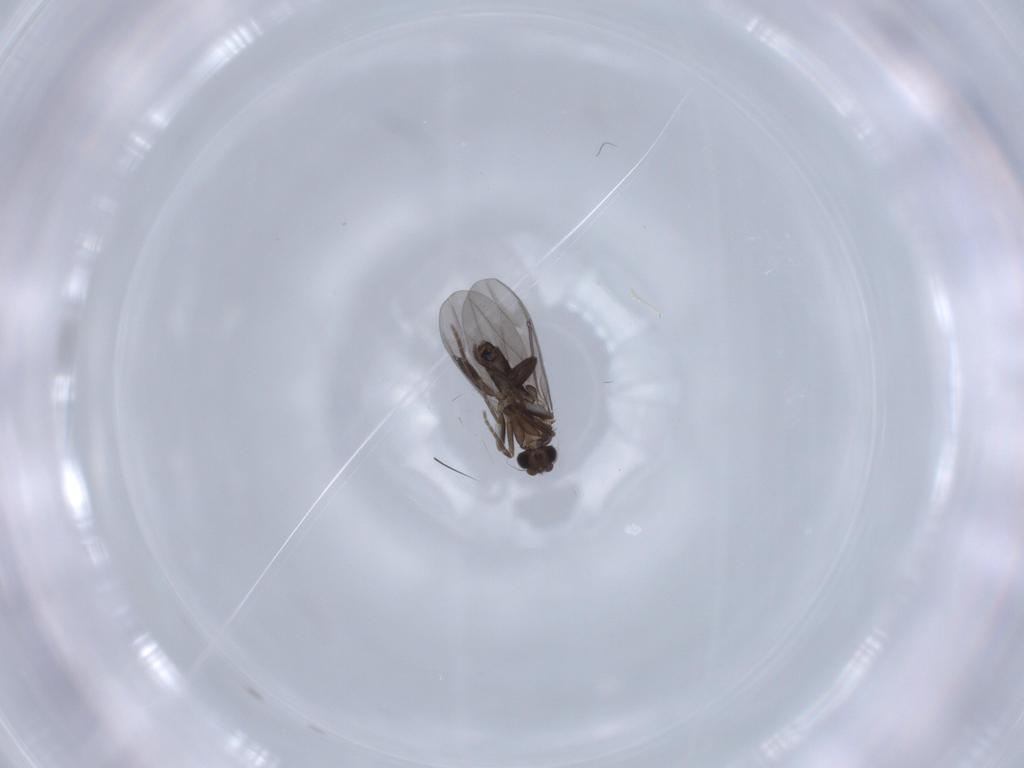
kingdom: Animalia
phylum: Arthropoda
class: Insecta
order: Diptera
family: Phoridae
